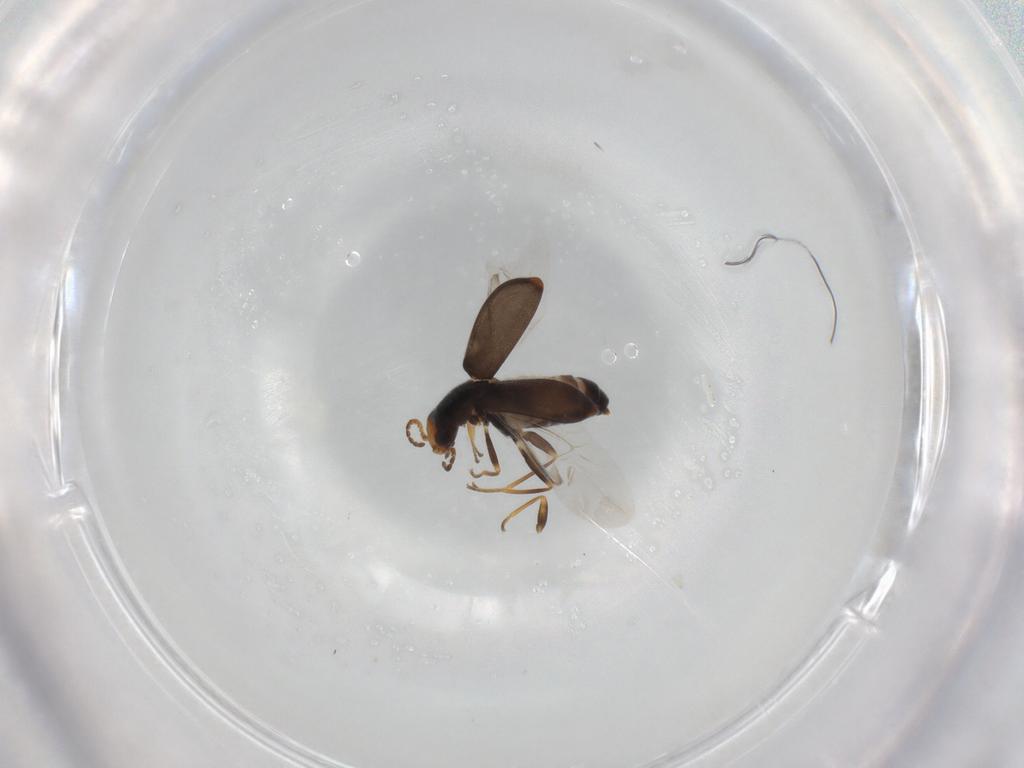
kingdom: Animalia
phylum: Arthropoda
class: Insecta
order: Coleoptera
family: Melyridae
